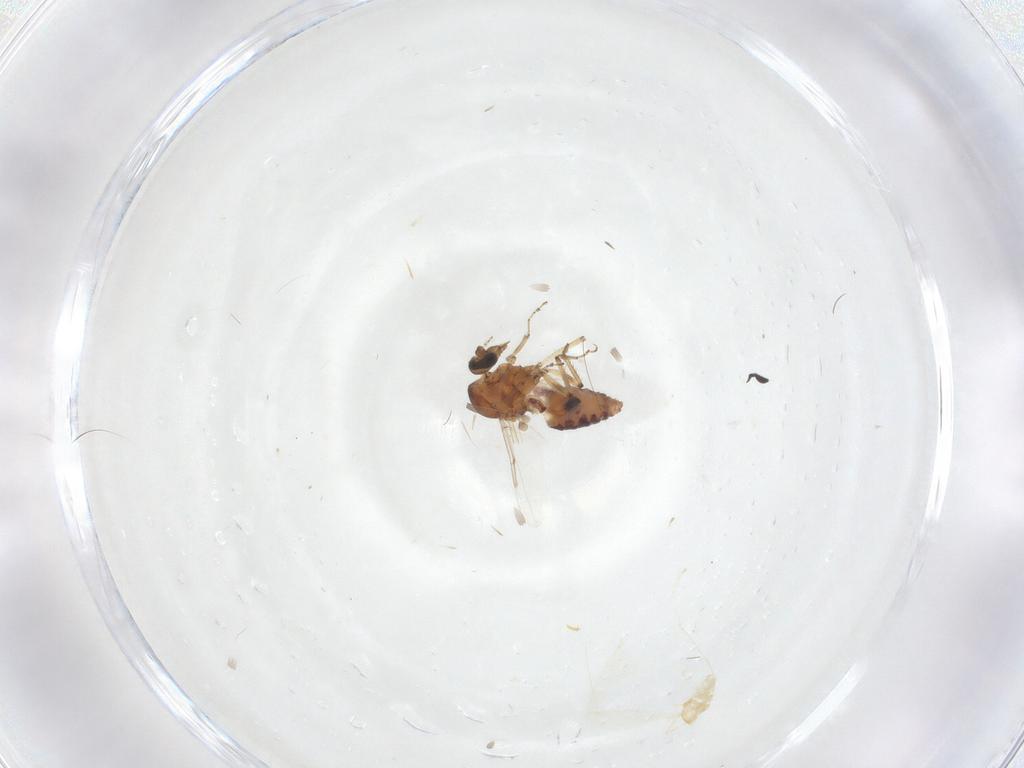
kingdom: Animalia
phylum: Arthropoda
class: Insecta
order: Diptera
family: Ceratopogonidae
